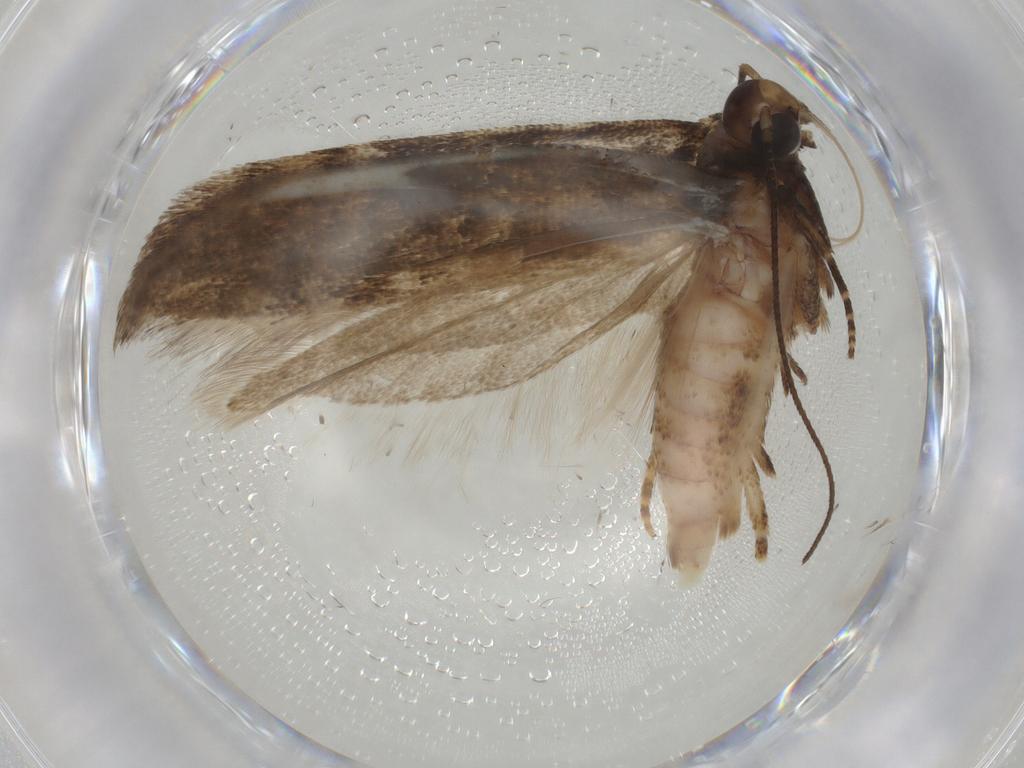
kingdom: Animalia
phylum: Arthropoda
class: Insecta
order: Lepidoptera
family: Gelechiidae
